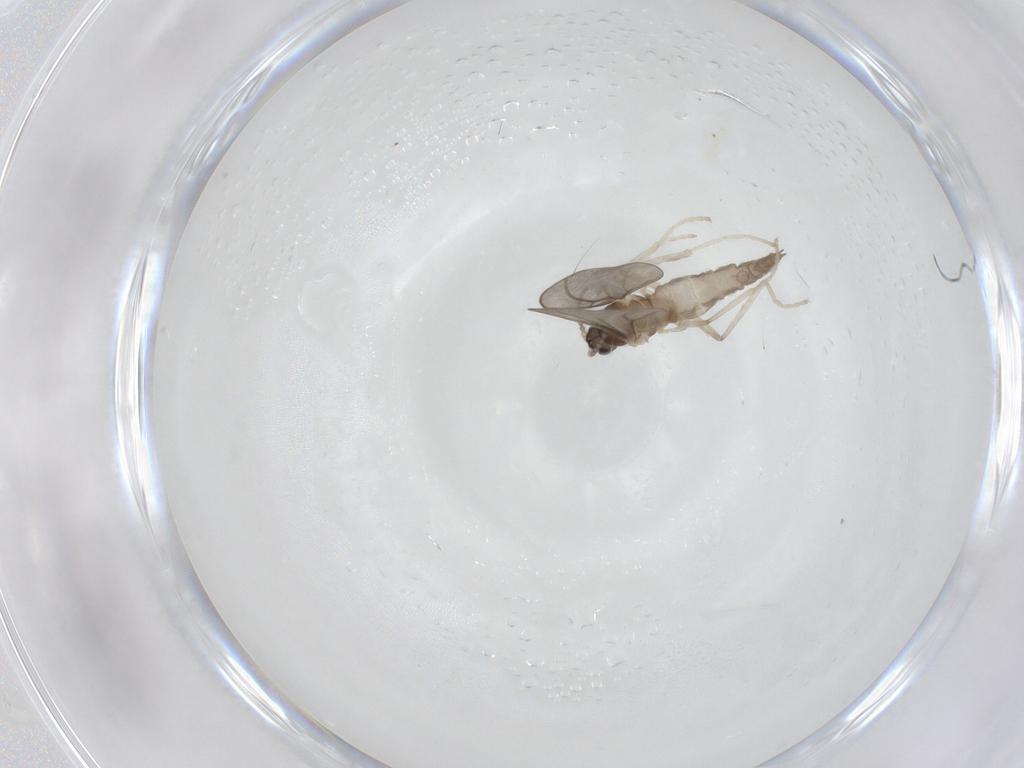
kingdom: Animalia
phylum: Arthropoda
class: Insecta
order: Diptera
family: Cecidomyiidae
